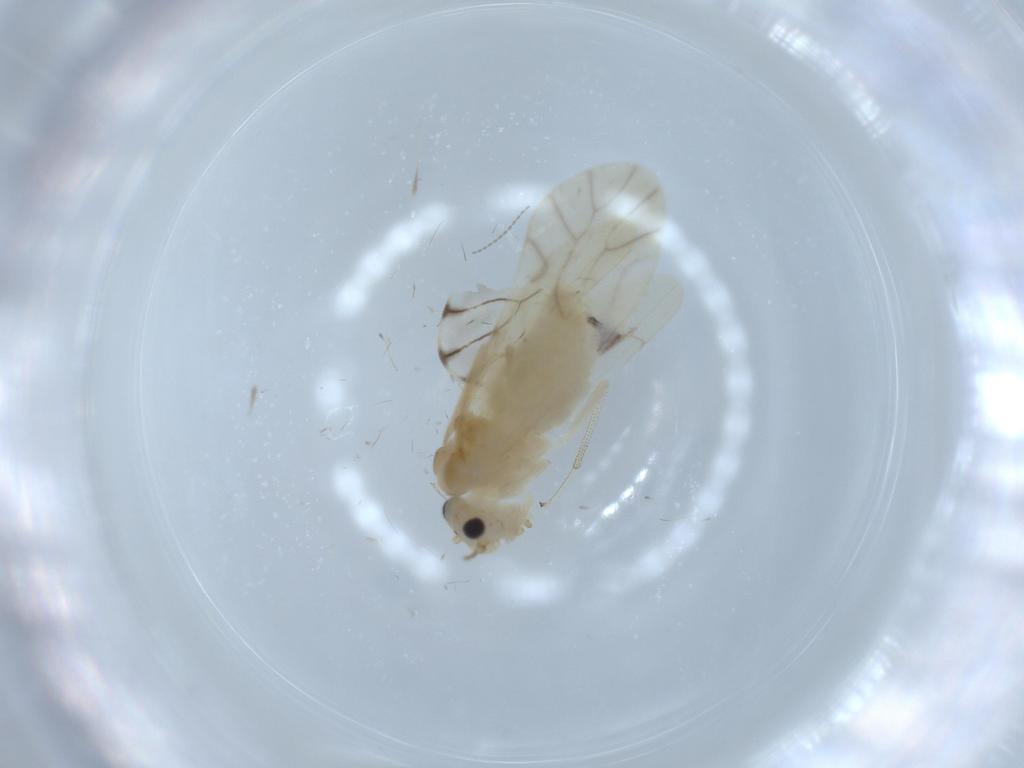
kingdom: Animalia
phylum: Arthropoda
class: Insecta
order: Psocodea
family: Caeciliusidae
